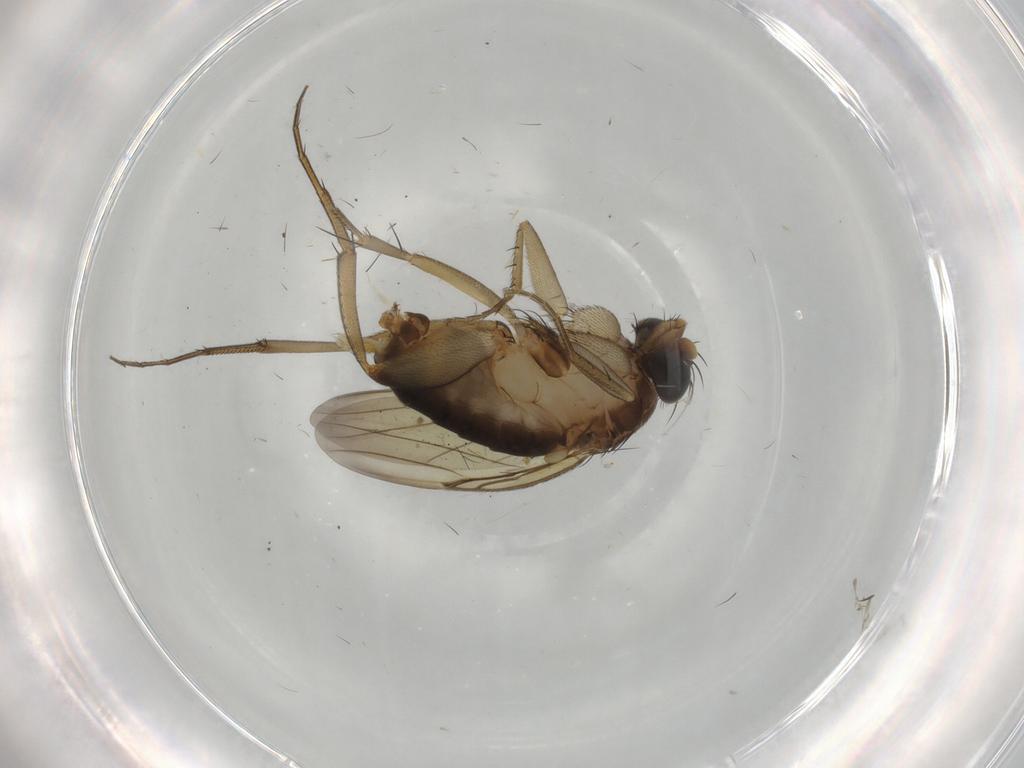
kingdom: Animalia
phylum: Arthropoda
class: Insecta
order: Diptera
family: Phoridae
